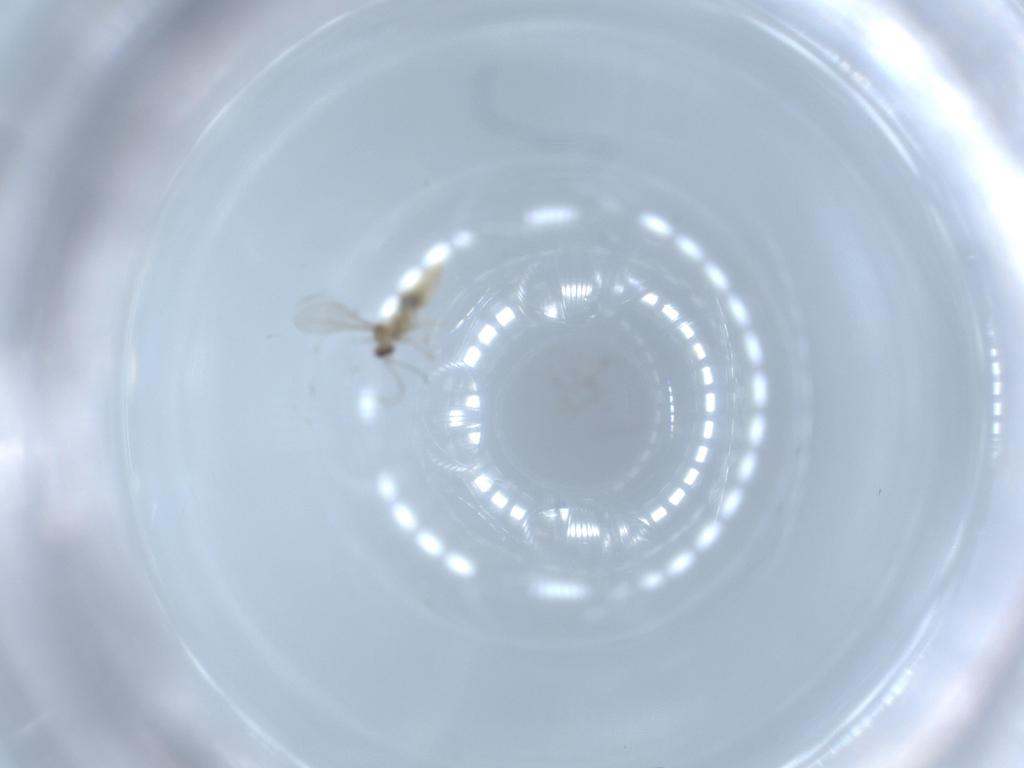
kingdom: Animalia
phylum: Arthropoda
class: Insecta
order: Diptera
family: Cecidomyiidae
